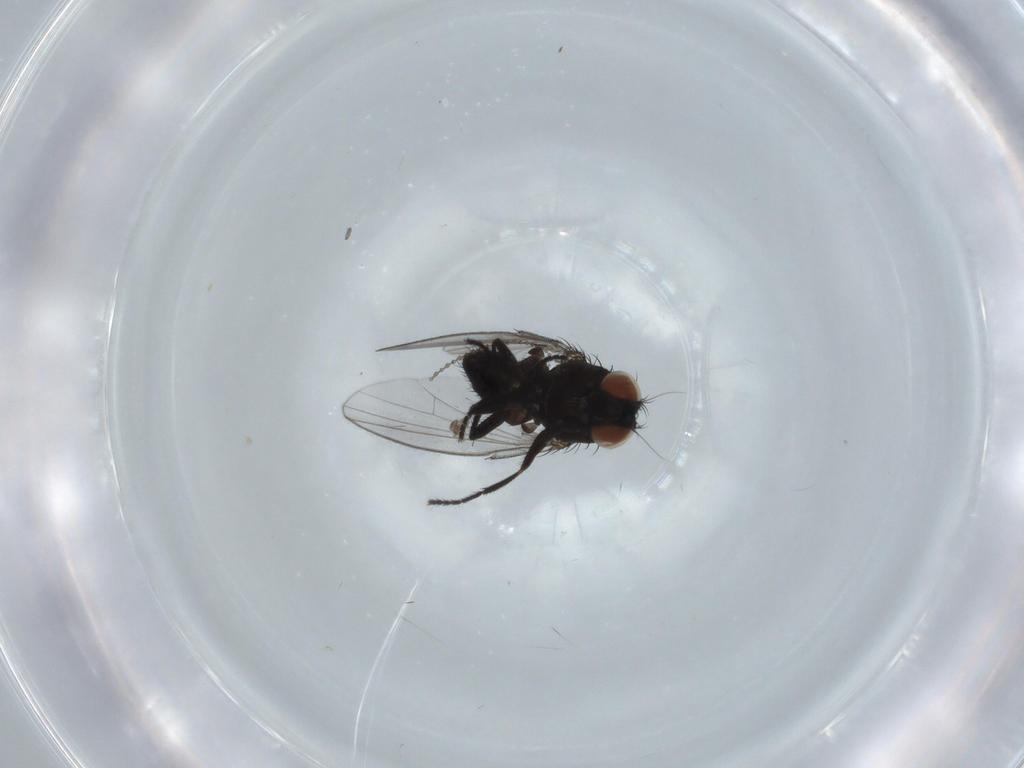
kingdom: Animalia
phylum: Arthropoda
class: Insecta
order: Diptera
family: Milichiidae
